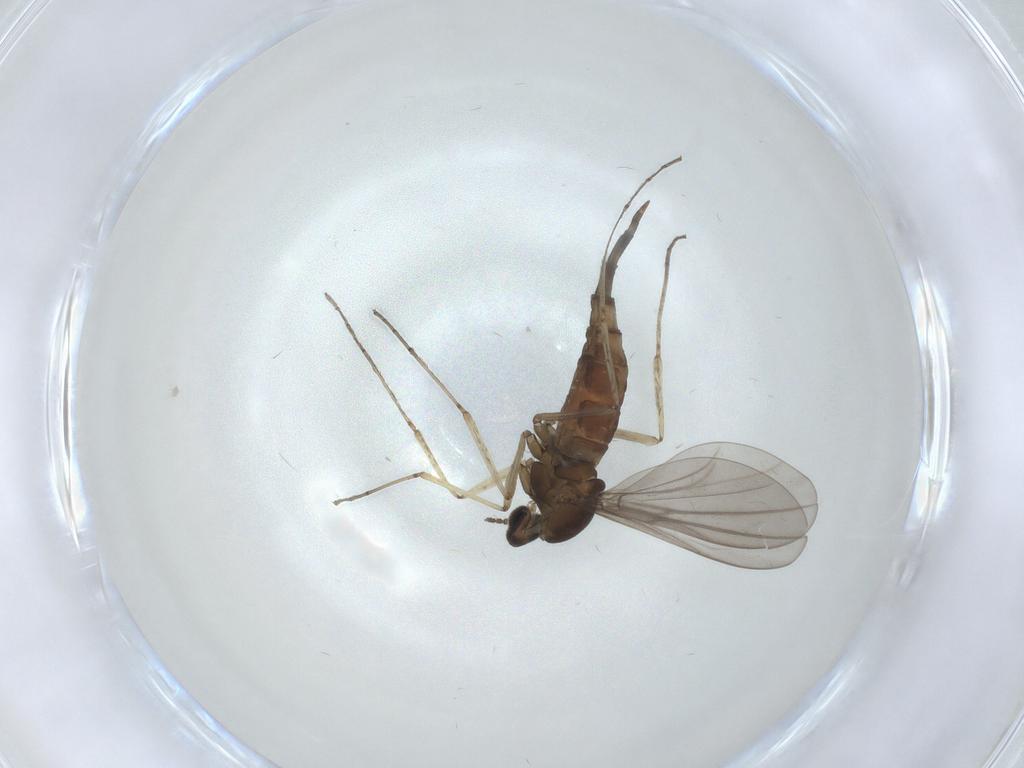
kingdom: Animalia
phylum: Arthropoda
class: Insecta
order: Diptera
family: Cecidomyiidae
